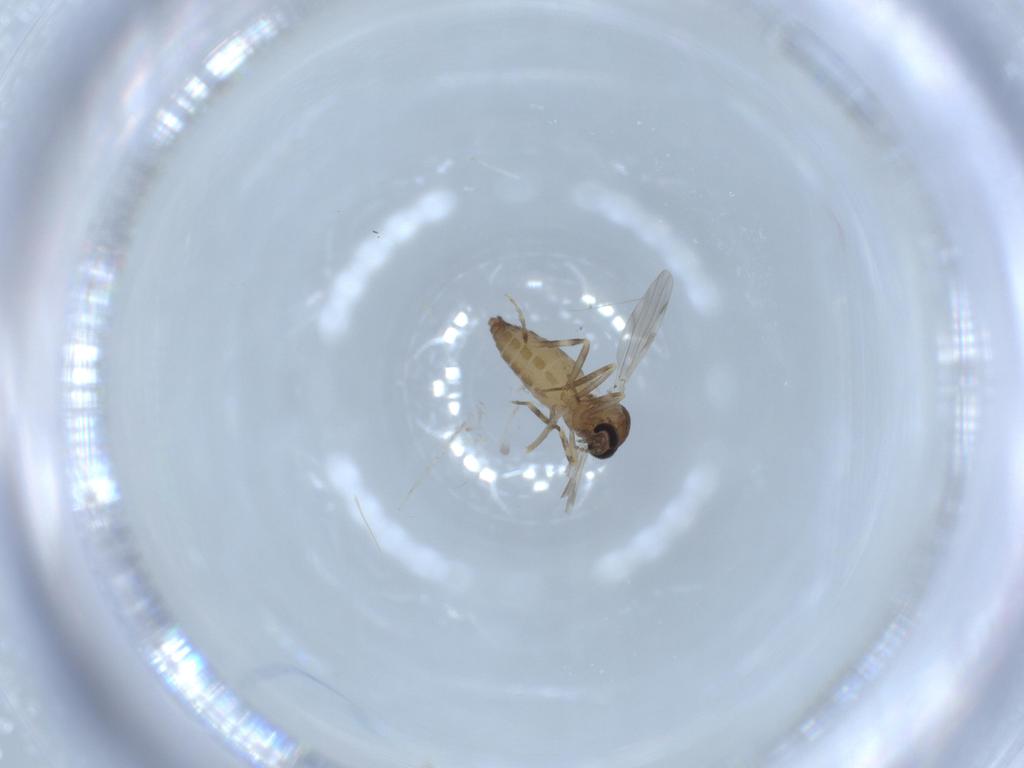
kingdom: Animalia
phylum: Arthropoda
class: Insecta
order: Diptera
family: Ceratopogonidae
